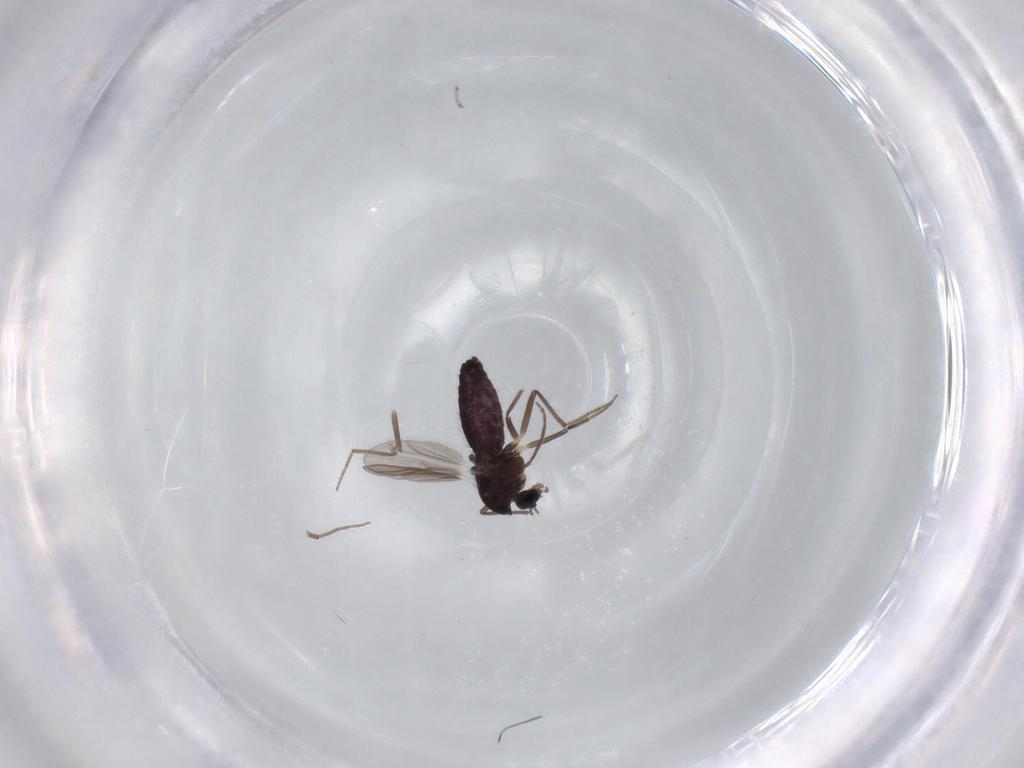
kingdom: Animalia
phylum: Arthropoda
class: Insecta
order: Diptera
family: Chironomidae
